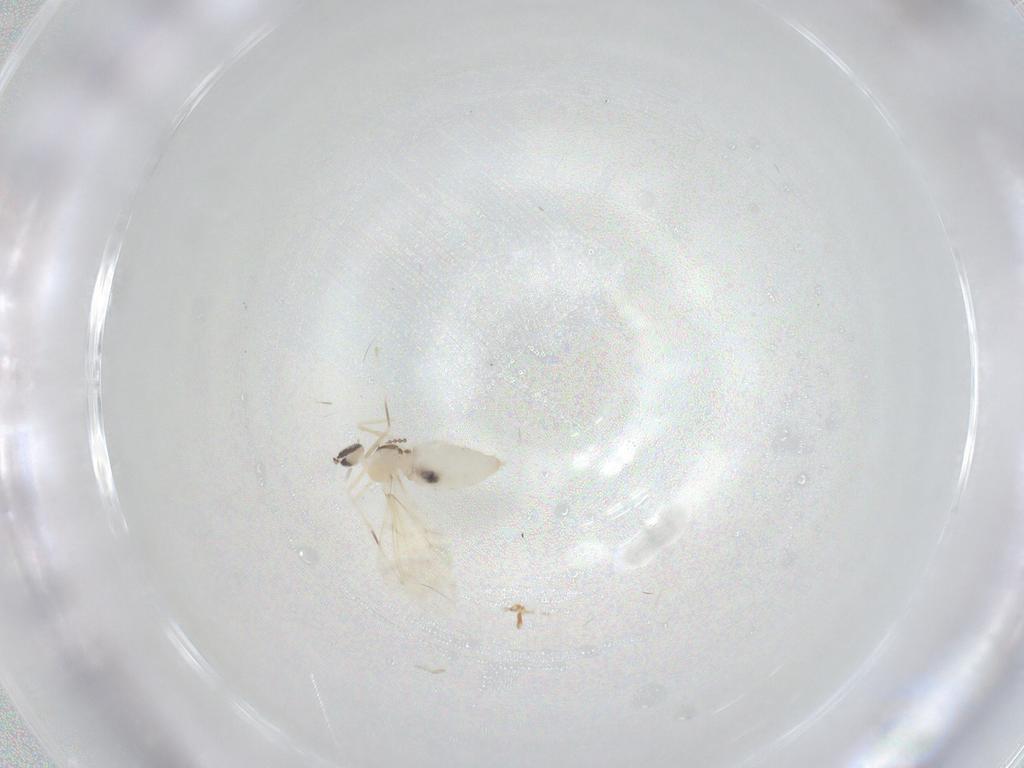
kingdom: Animalia
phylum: Arthropoda
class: Insecta
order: Diptera
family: Cecidomyiidae
